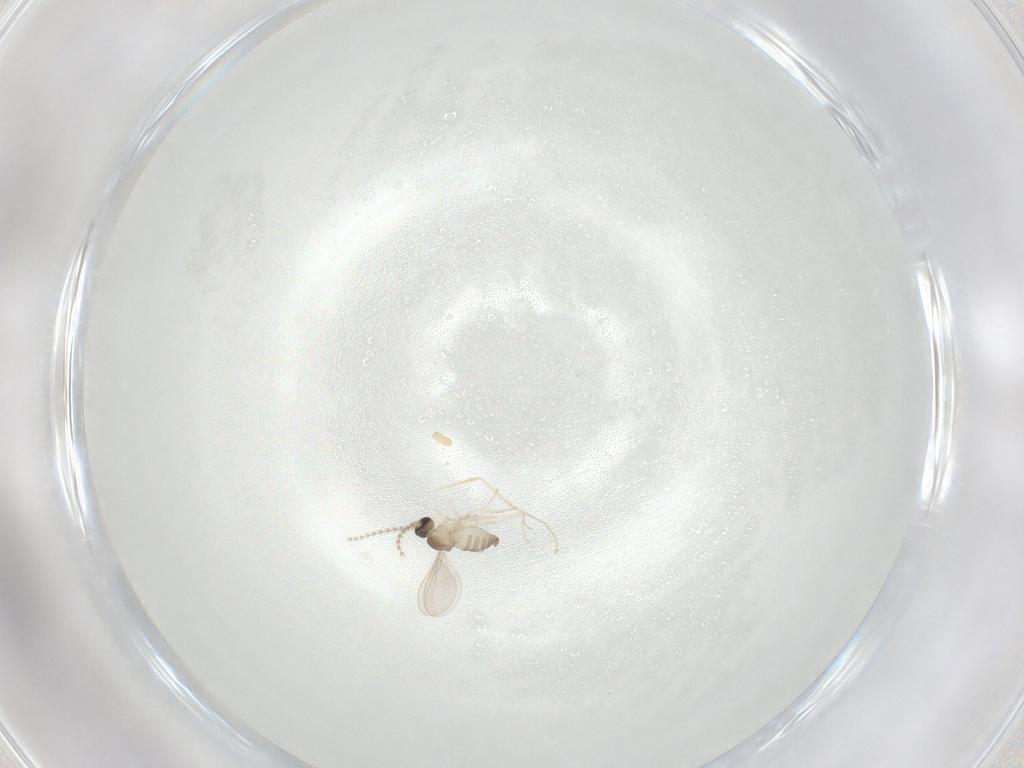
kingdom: Animalia
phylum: Arthropoda
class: Insecta
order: Diptera
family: Cecidomyiidae
